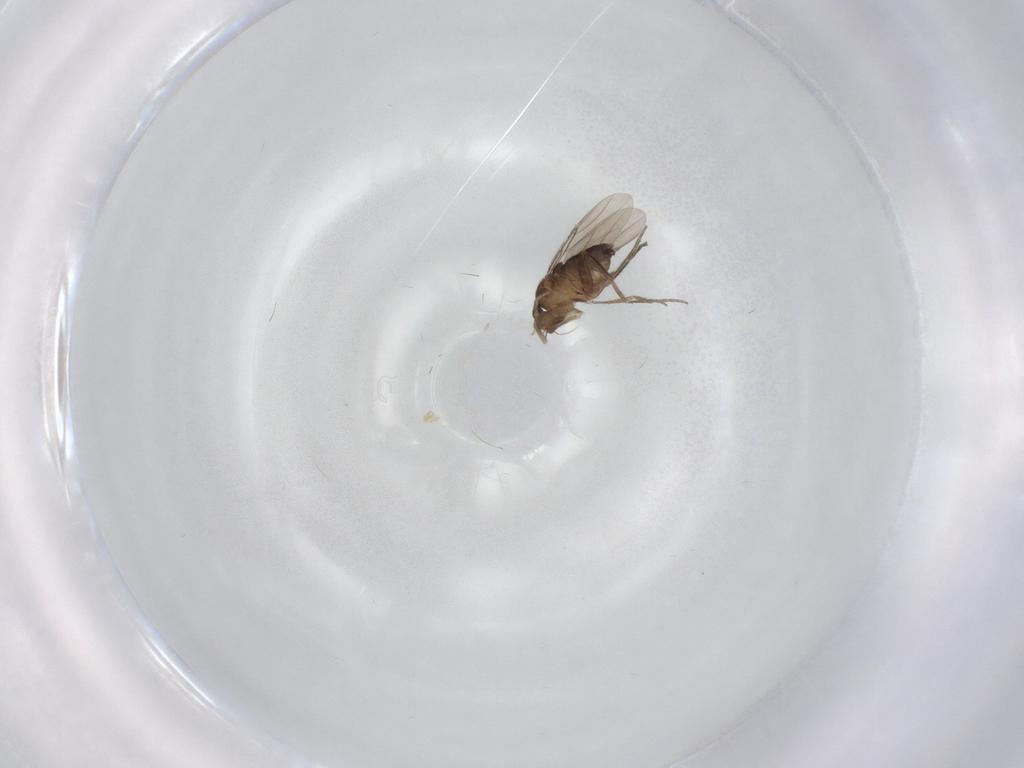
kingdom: Animalia
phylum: Arthropoda
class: Insecta
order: Diptera
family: Phoridae
